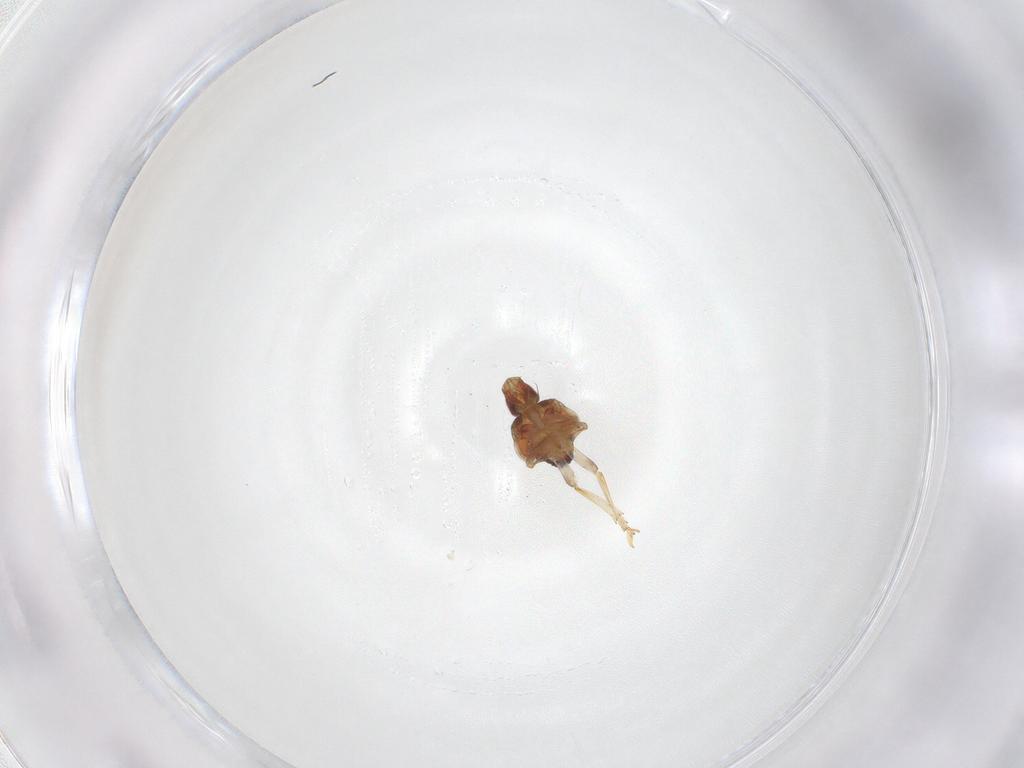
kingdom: Animalia
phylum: Arthropoda
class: Insecta
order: Hemiptera
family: Issidae
